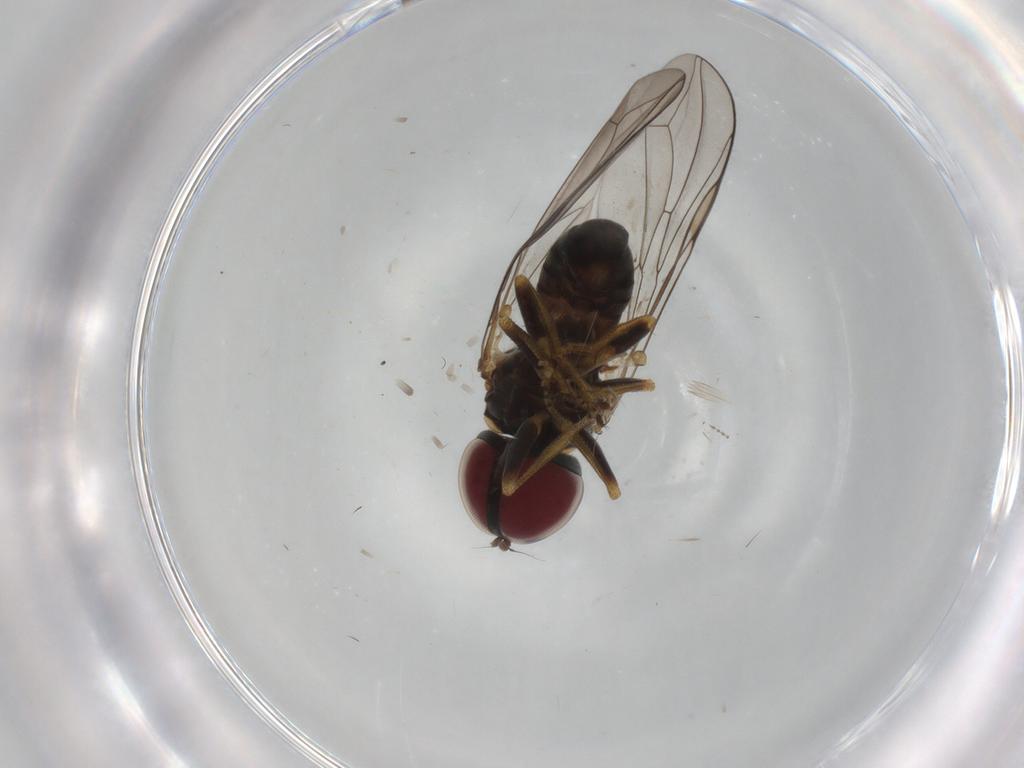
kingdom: Animalia
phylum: Arthropoda
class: Insecta
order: Diptera
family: Pipunculidae
